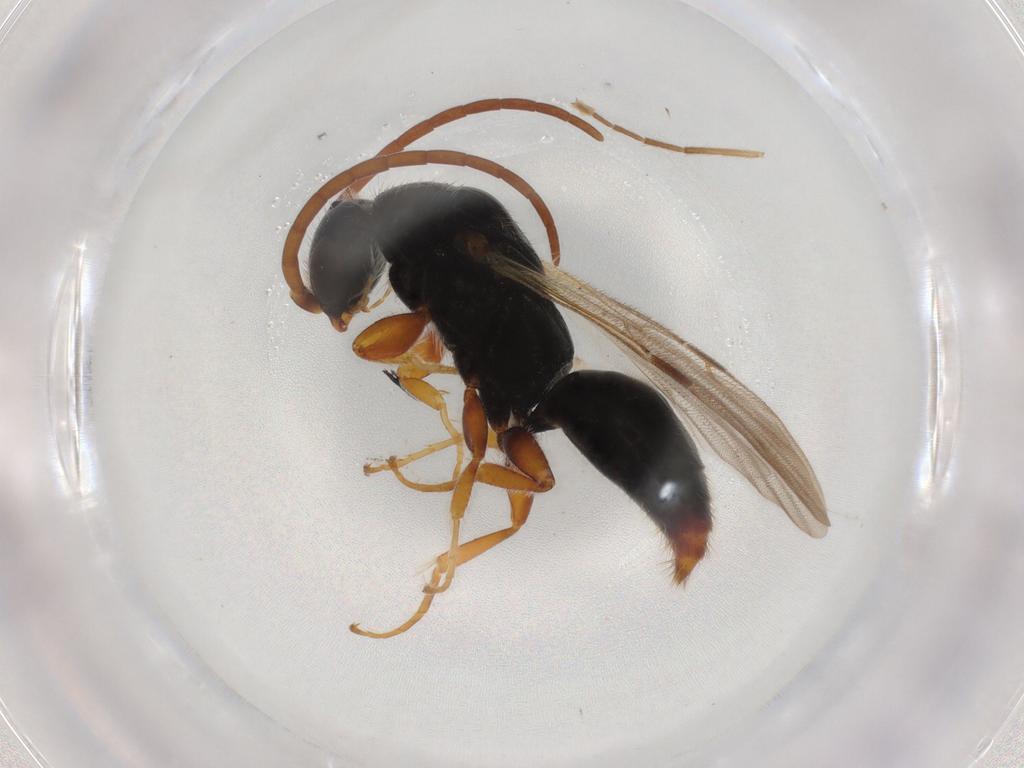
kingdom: Animalia
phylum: Arthropoda
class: Insecta
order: Hymenoptera
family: Bethylidae
